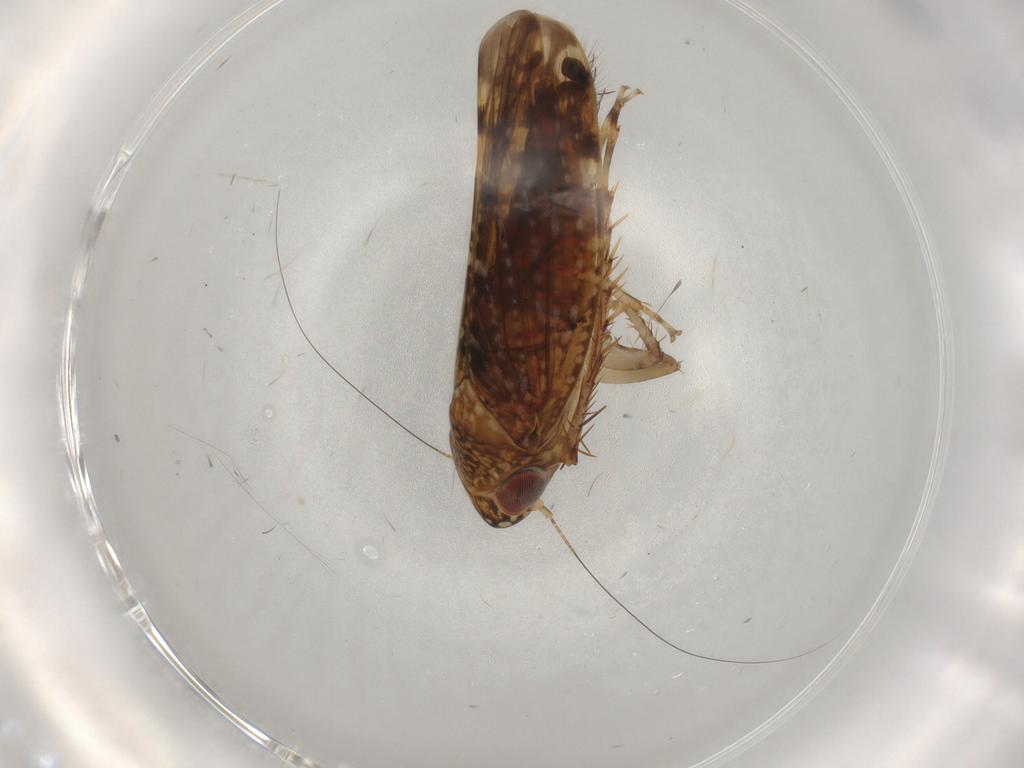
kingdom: Animalia
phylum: Arthropoda
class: Insecta
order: Hemiptera
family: Cicadellidae
